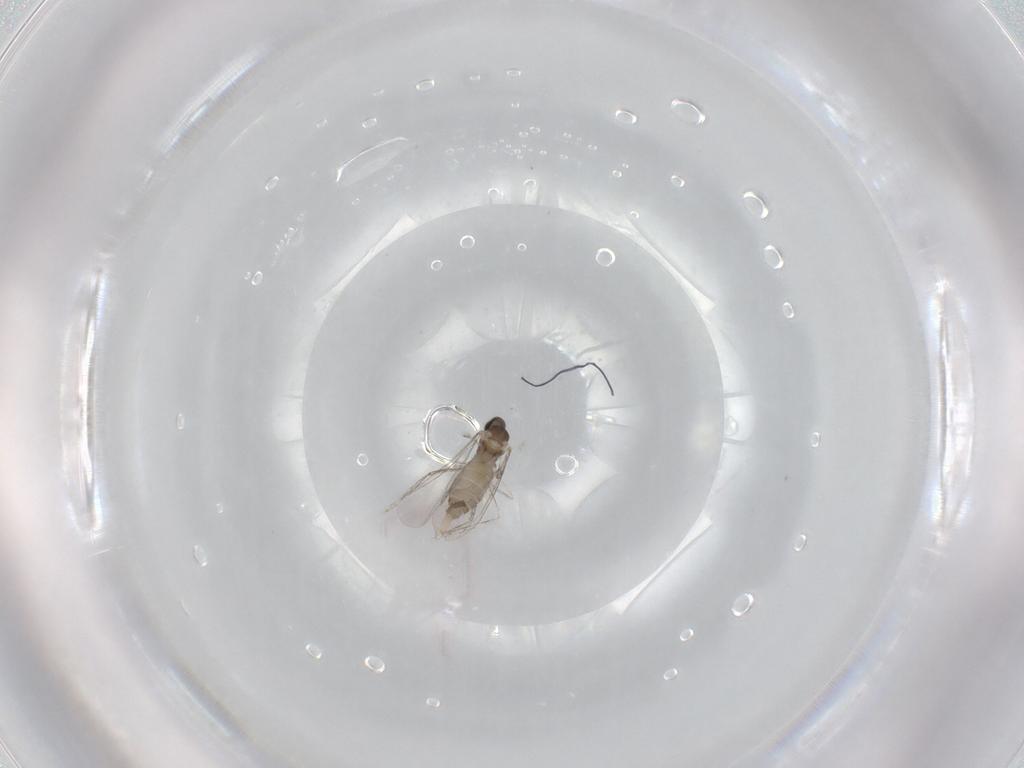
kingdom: Animalia
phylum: Arthropoda
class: Insecta
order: Diptera
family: Cecidomyiidae
